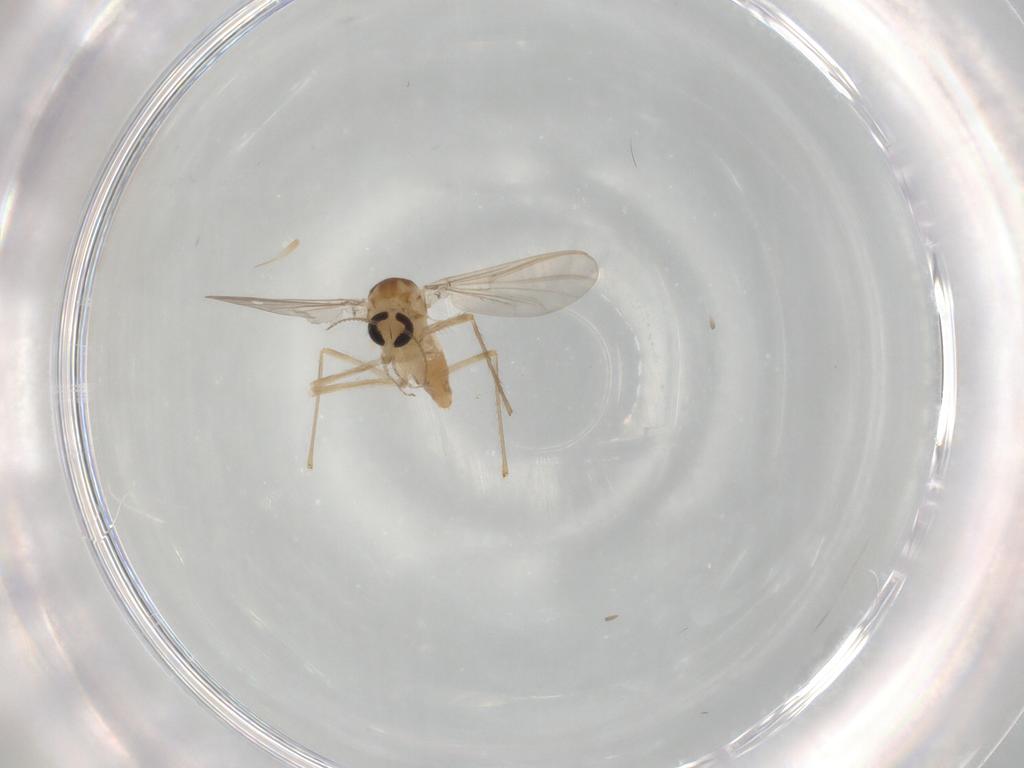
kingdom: Animalia
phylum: Arthropoda
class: Insecta
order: Diptera
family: Chironomidae
